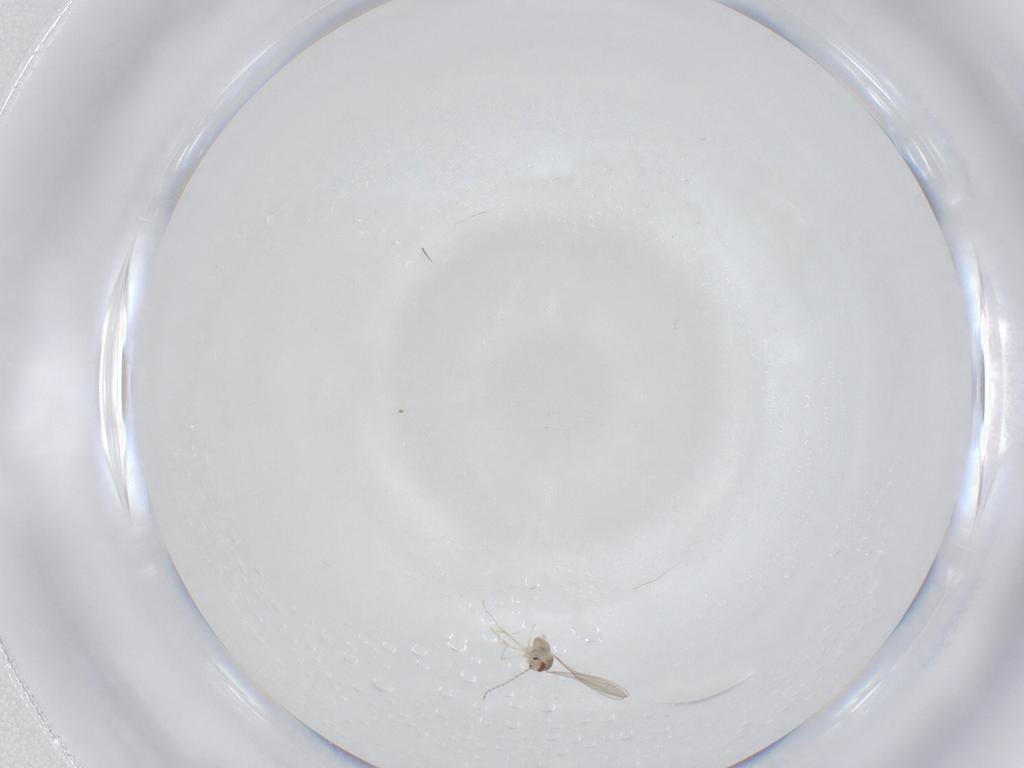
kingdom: Animalia
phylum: Arthropoda
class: Insecta
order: Diptera
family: Cecidomyiidae
